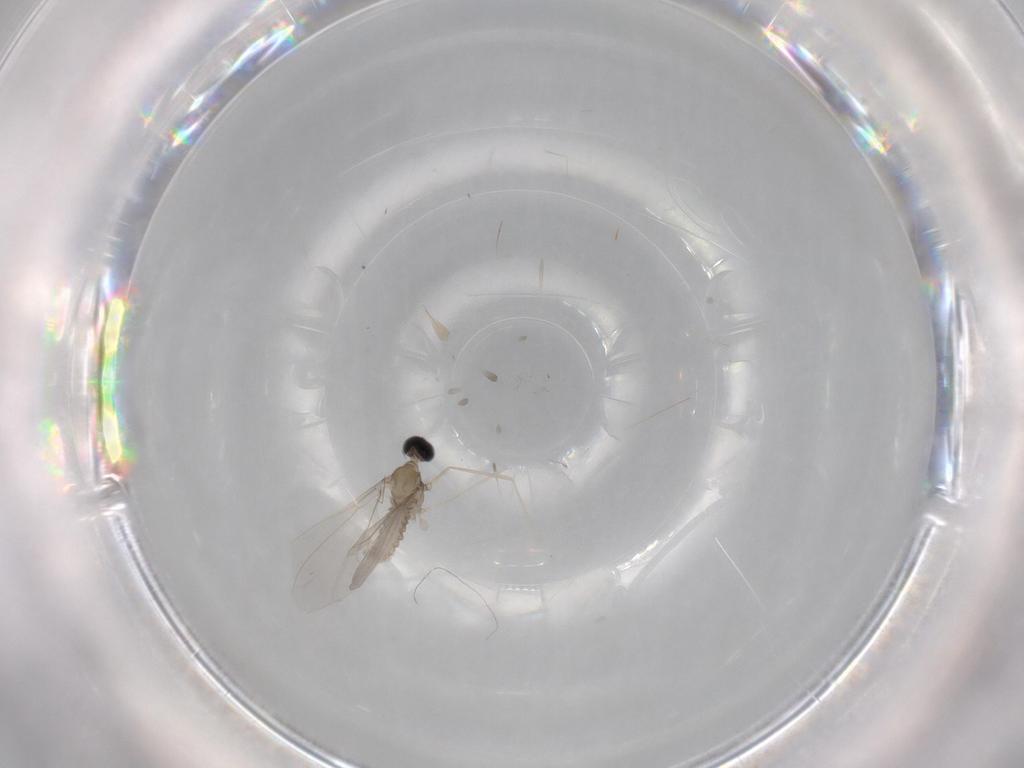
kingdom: Animalia
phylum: Arthropoda
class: Insecta
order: Diptera
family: Cecidomyiidae
